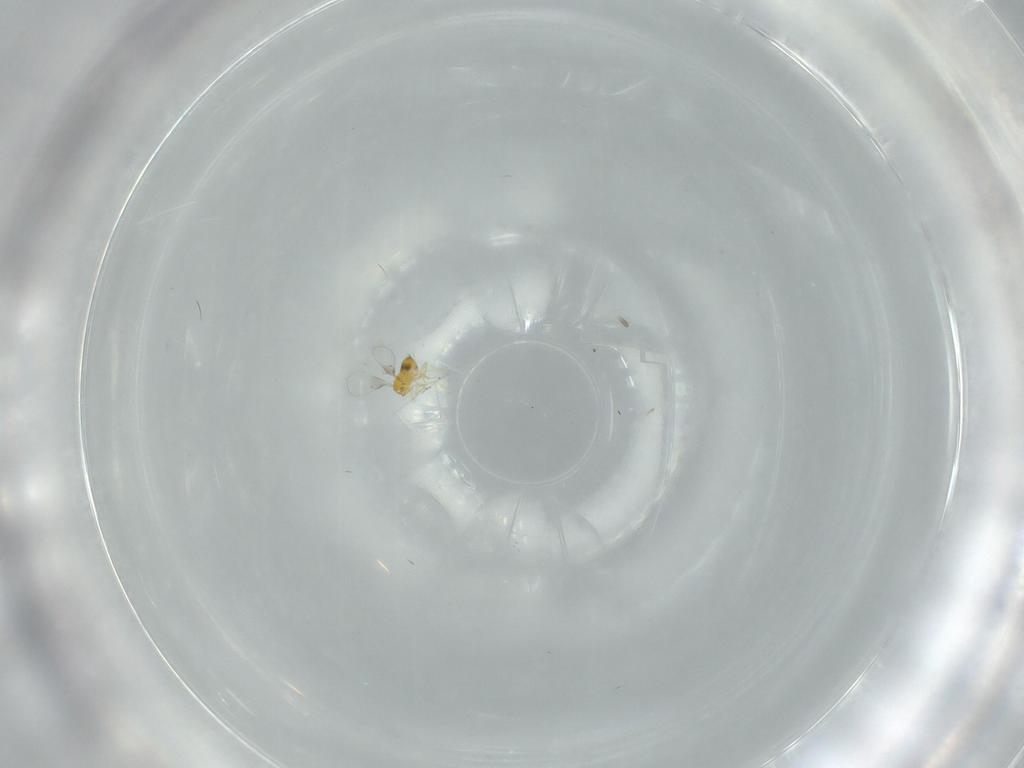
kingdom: Animalia
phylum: Arthropoda
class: Insecta
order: Hymenoptera
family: Trichogrammatidae
